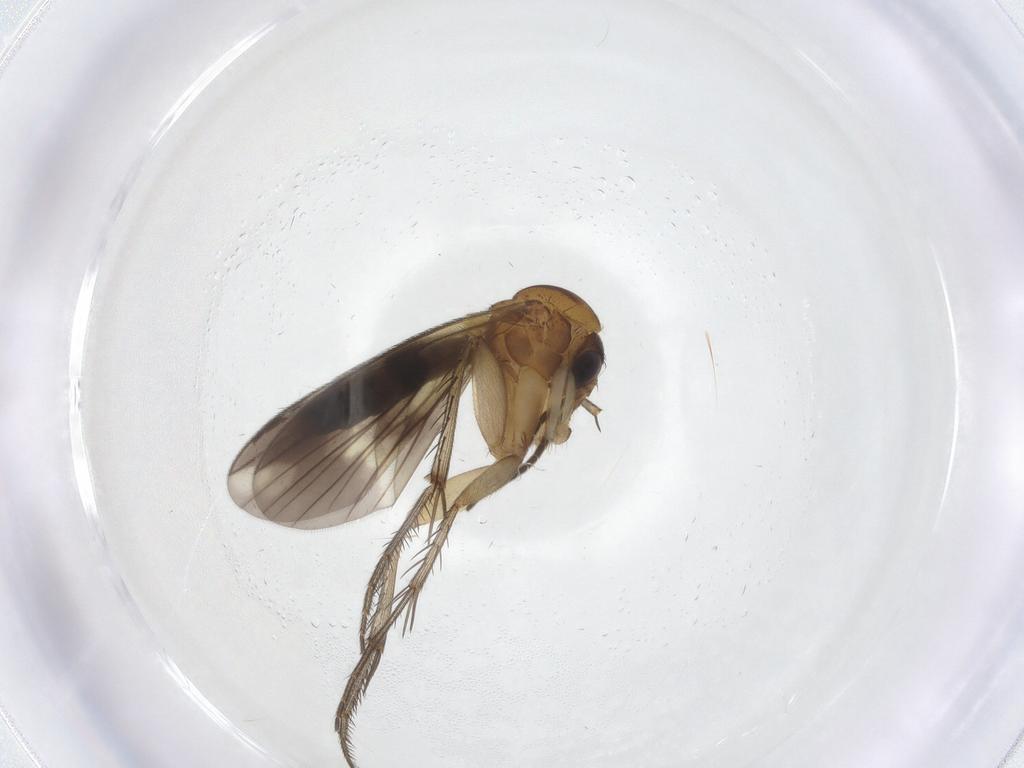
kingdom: Animalia
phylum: Arthropoda
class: Insecta
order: Diptera
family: Mycetophilidae
